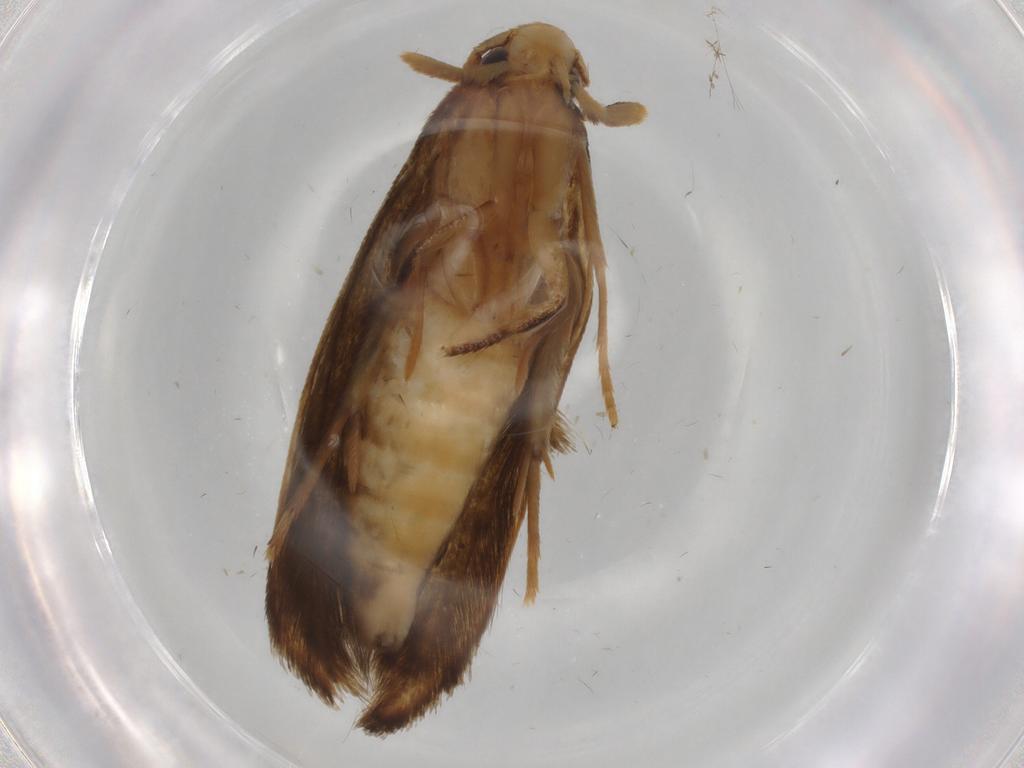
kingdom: Animalia
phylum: Arthropoda
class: Insecta
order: Lepidoptera
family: Tineidae
